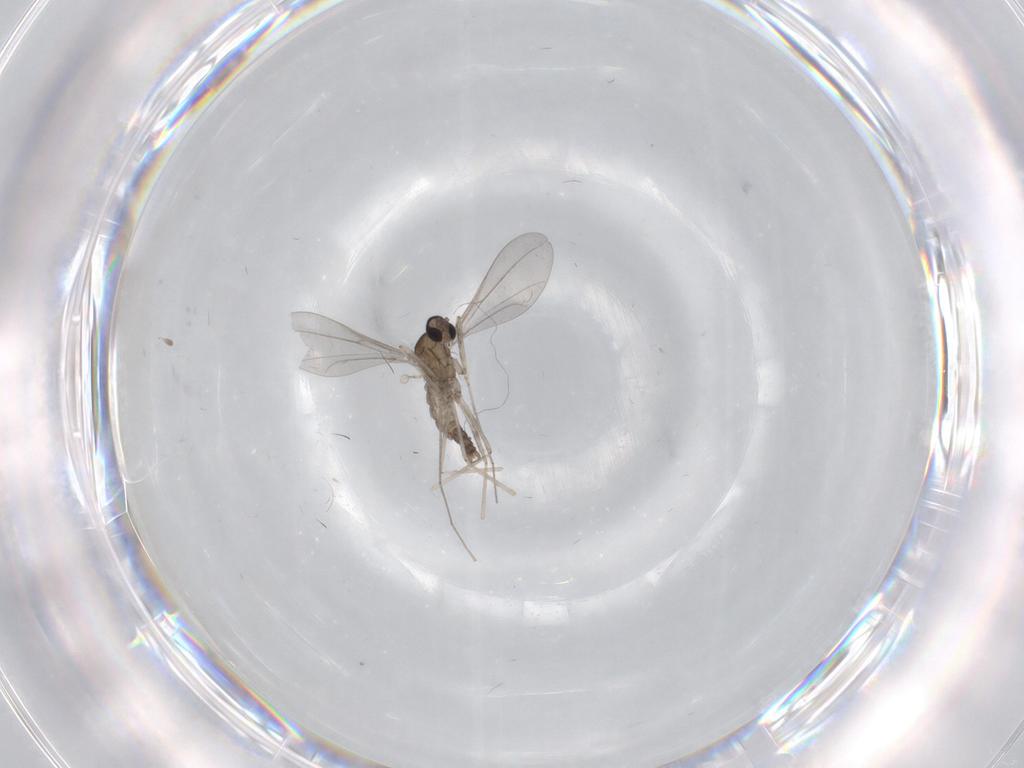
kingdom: Animalia
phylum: Arthropoda
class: Insecta
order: Diptera
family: Cecidomyiidae
